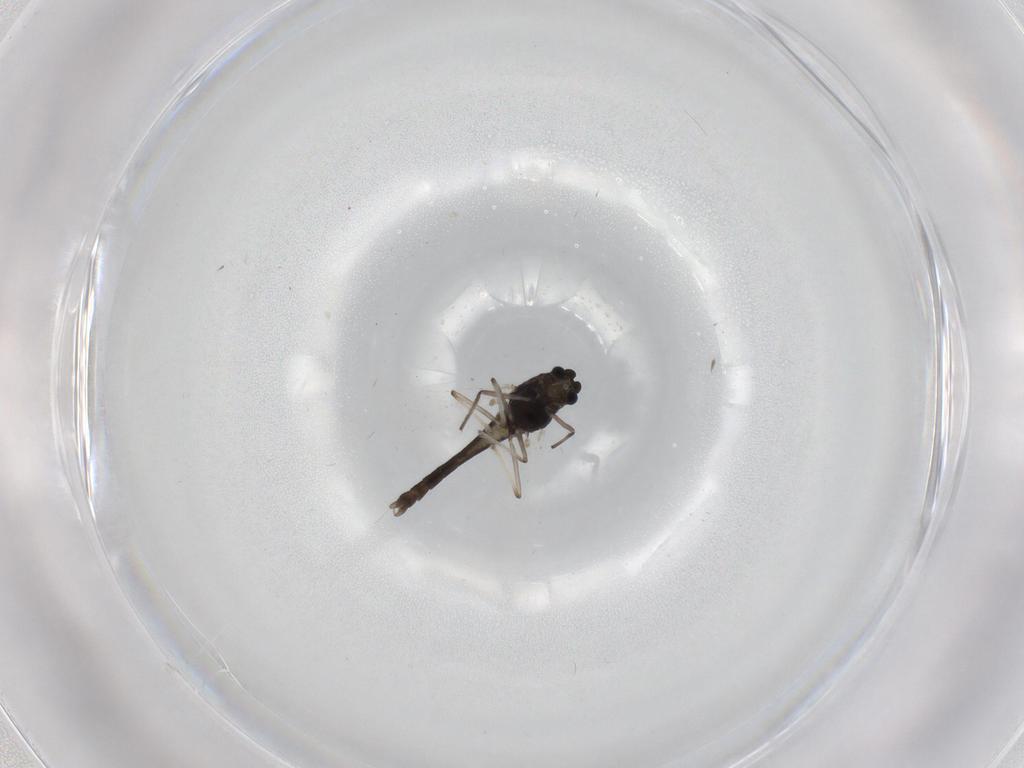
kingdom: Animalia
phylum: Arthropoda
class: Insecta
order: Diptera
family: Chironomidae
